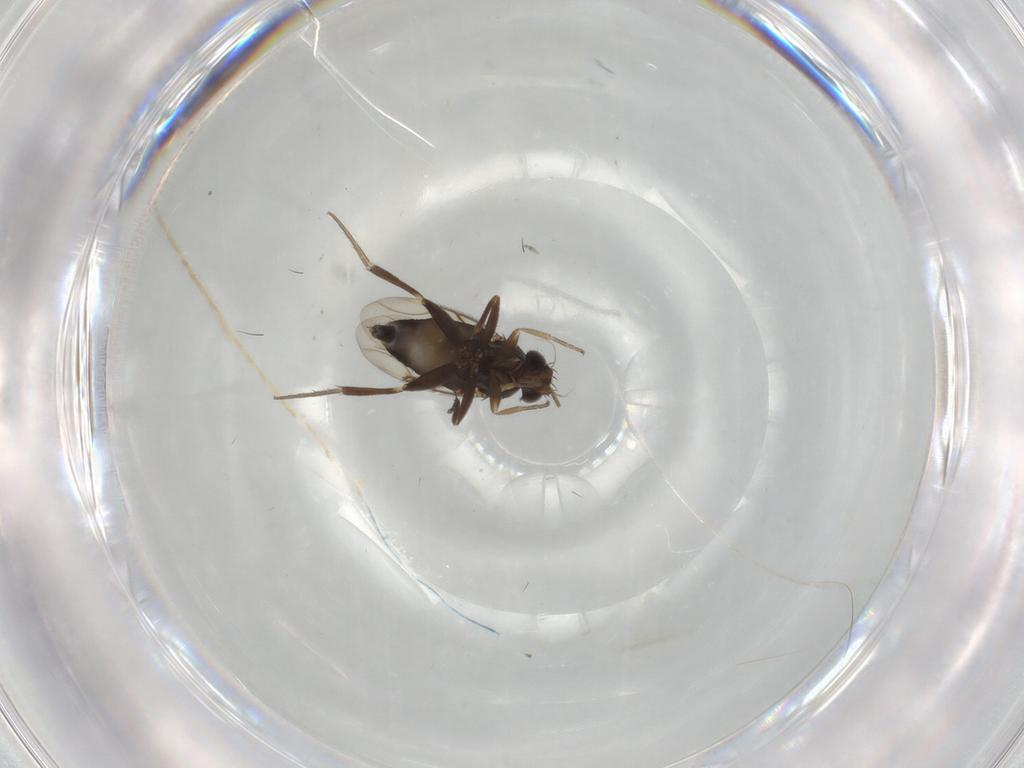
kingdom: Animalia
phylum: Arthropoda
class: Insecta
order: Diptera
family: Phoridae
